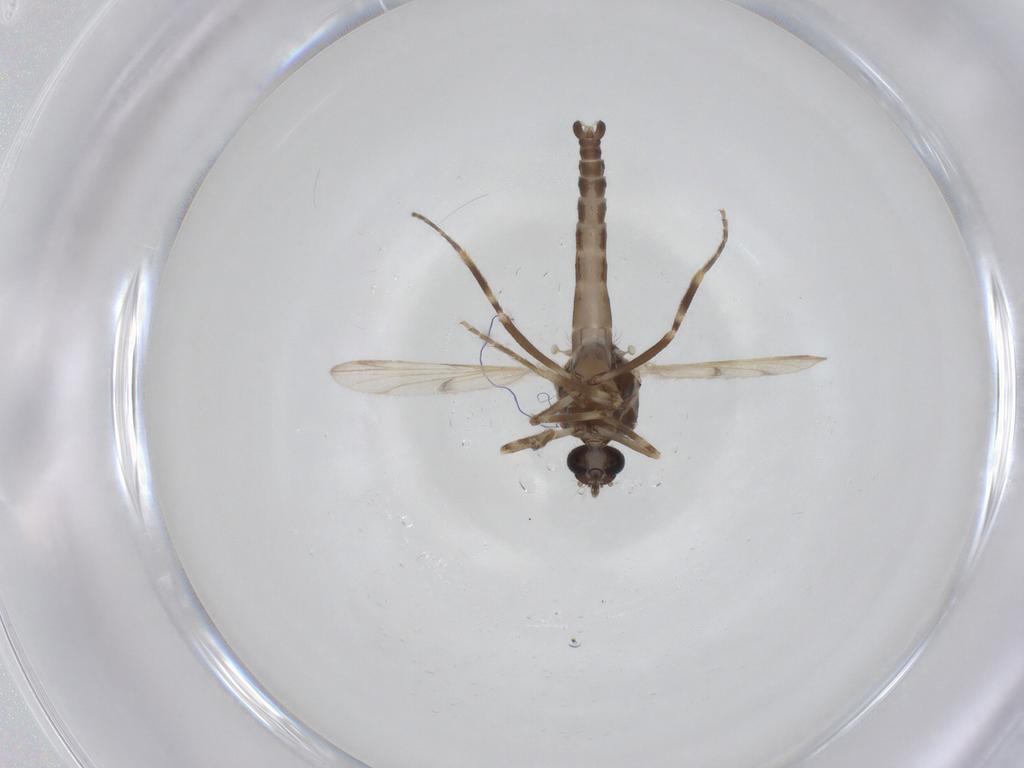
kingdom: Animalia
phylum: Arthropoda
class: Insecta
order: Diptera
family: Ceratopogonidae
